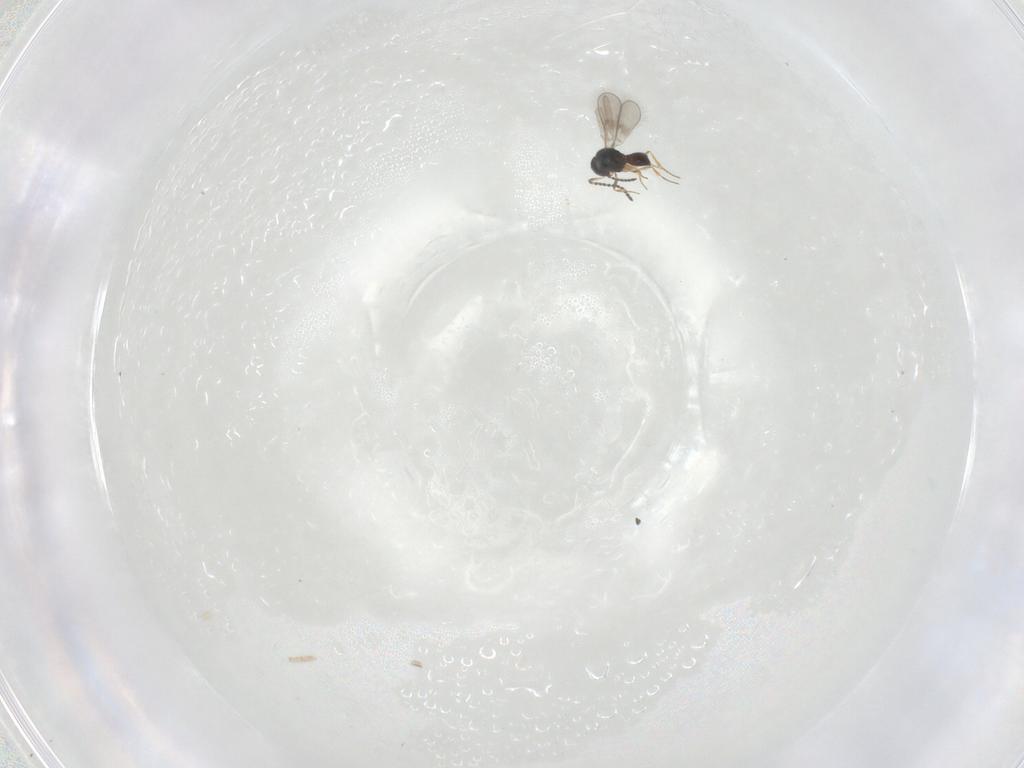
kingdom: Animalia
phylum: Arthropoda
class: Insecta
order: Hymenoptera
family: Scelionidae
